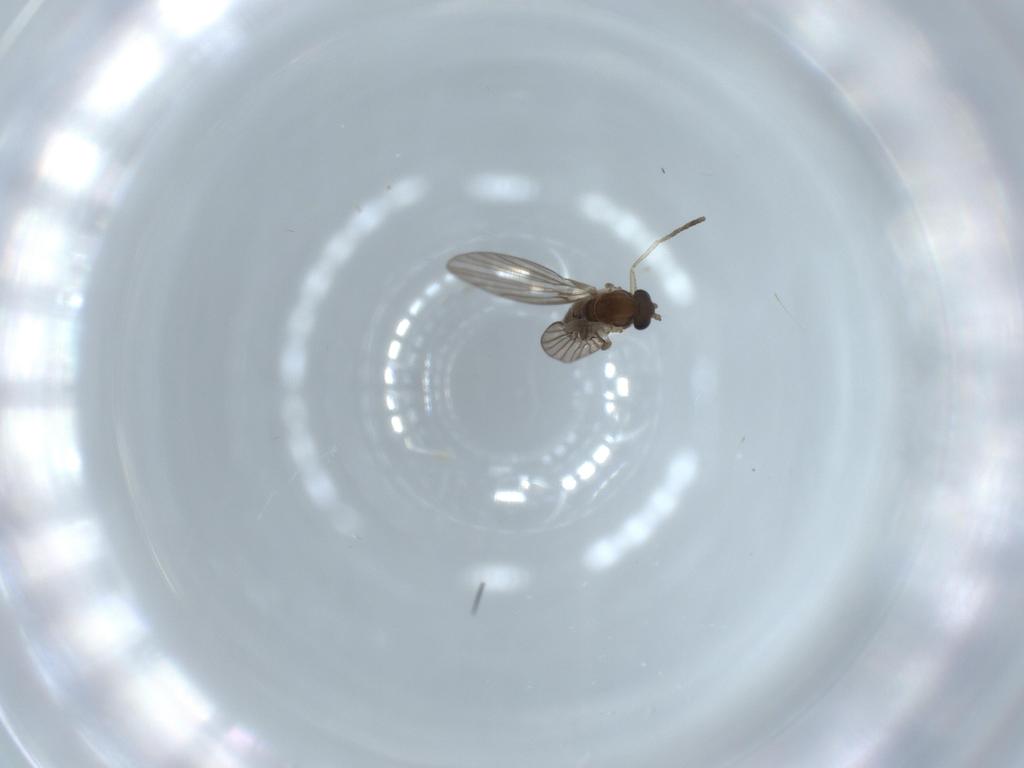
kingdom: Animalia
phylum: Arthropoda
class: Insecta
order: Diptera
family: Psychodidae
